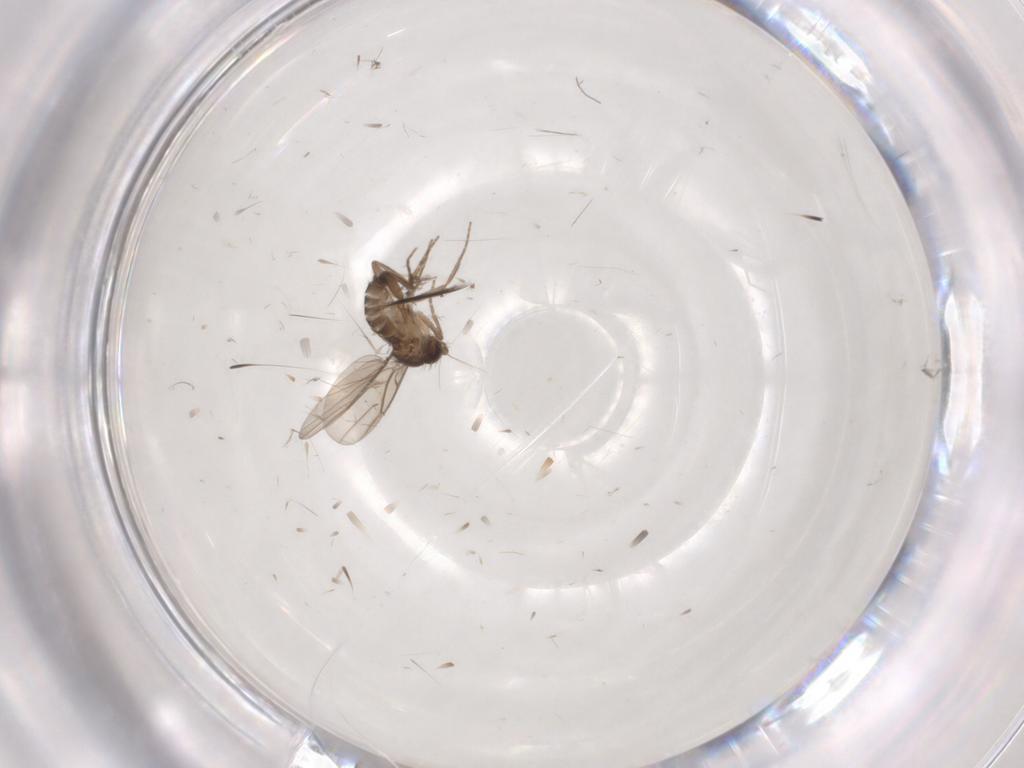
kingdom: Animalia
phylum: Arthropoda
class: Insecta
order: Diptera
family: Phoridae
